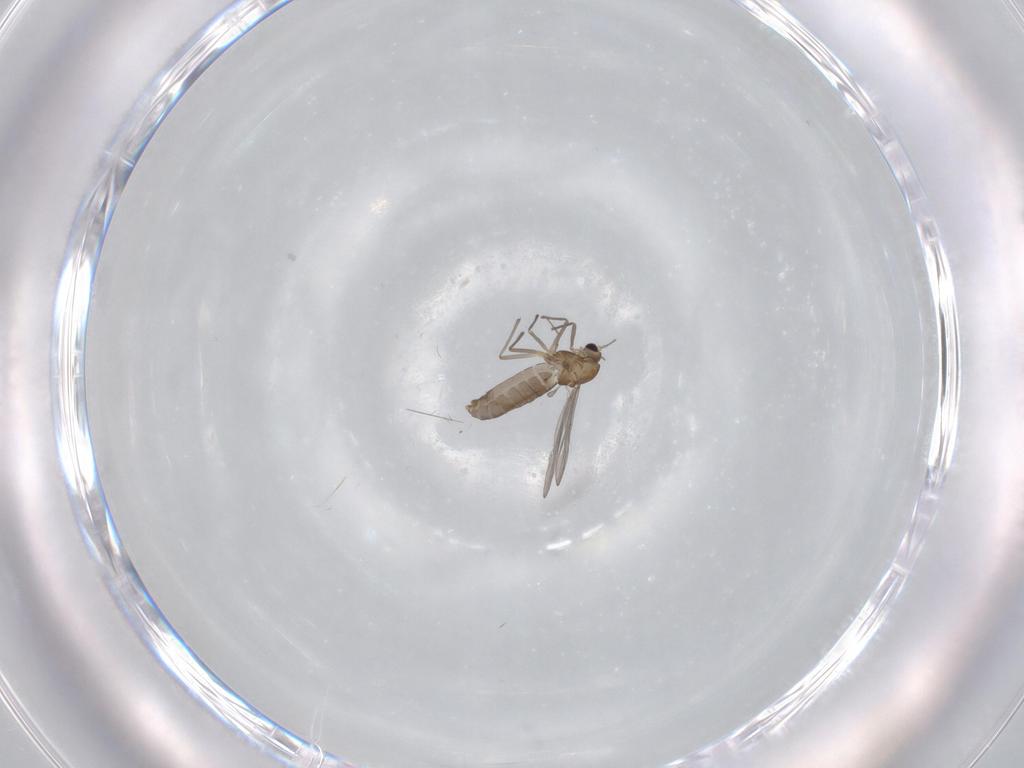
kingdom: Animalia
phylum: Arthropoda
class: Insecta
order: Diptera
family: Chironomidae
